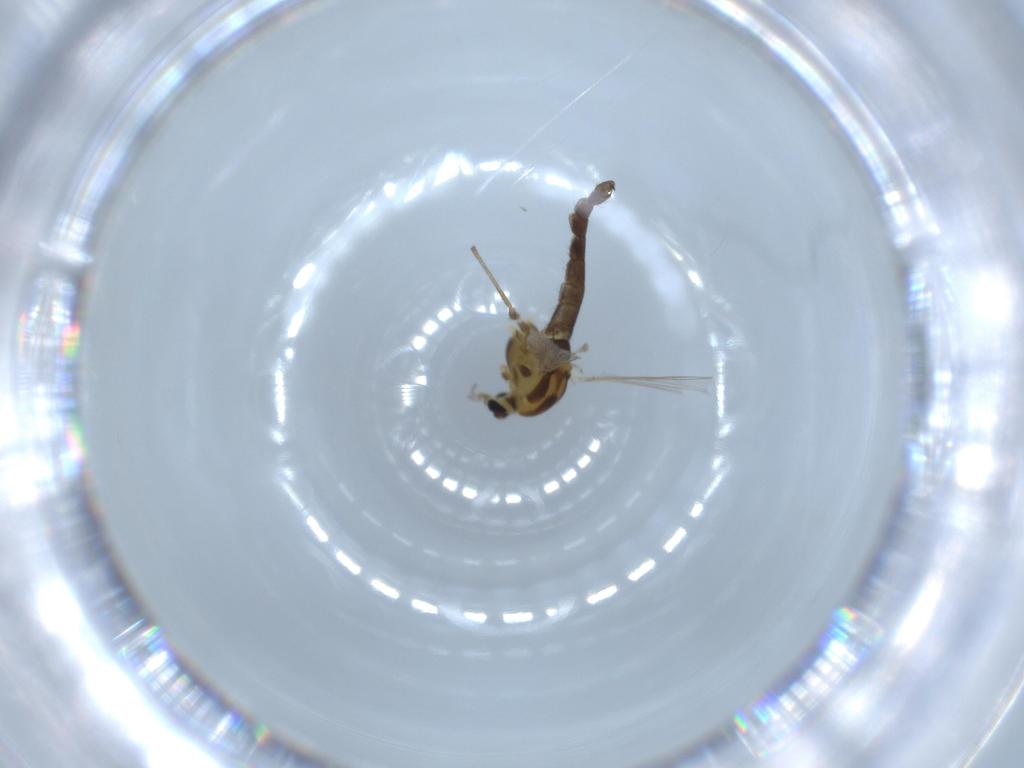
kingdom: Animalia
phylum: Arthropoda
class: Insecta
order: Diptera
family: Chironomidae
